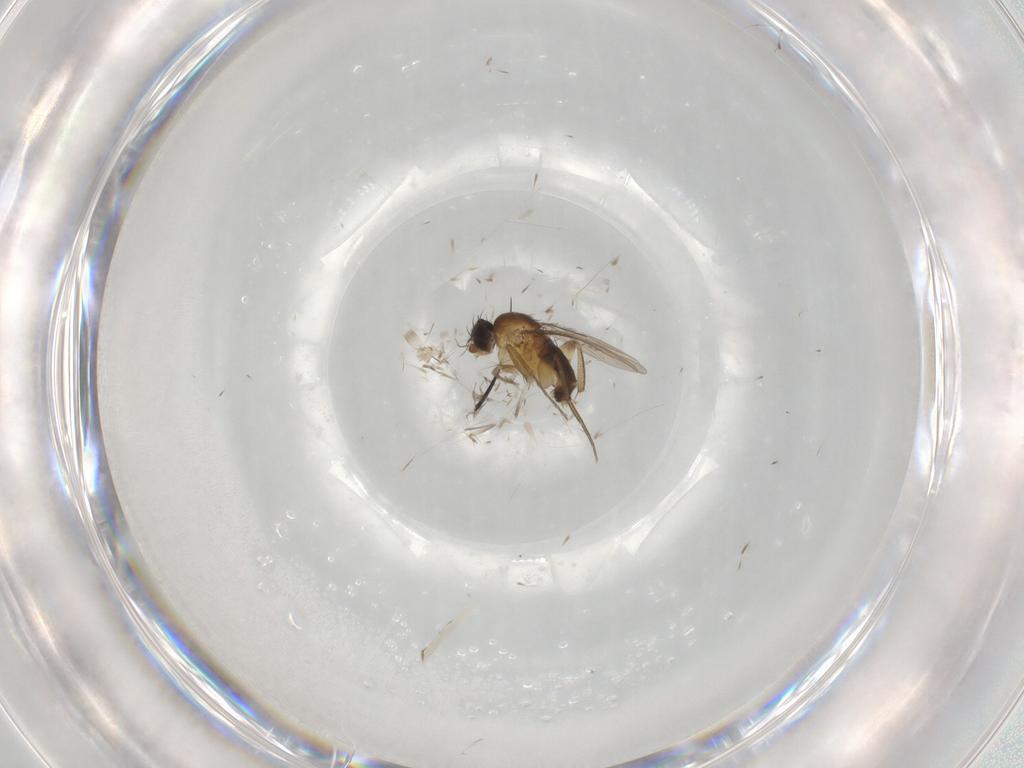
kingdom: Animalia
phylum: Arthropoda
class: Insecta
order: Diptera
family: Phoridae
